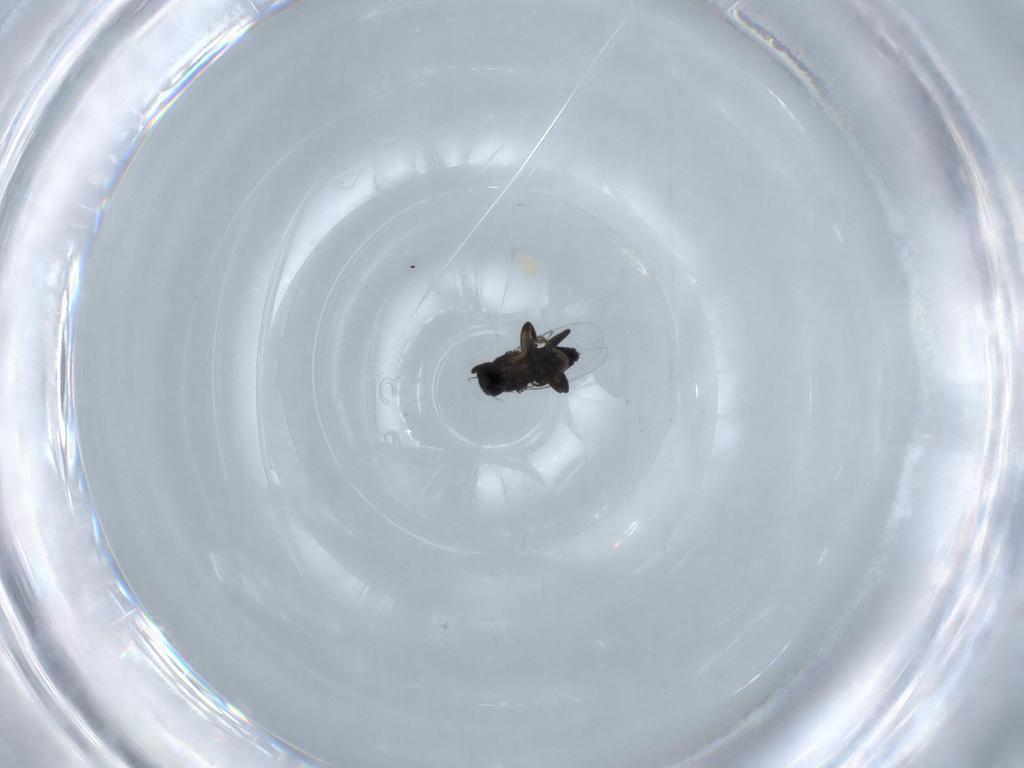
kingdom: Animalia
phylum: Arthropoda
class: Insecta
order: Diptera
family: Phoridae
